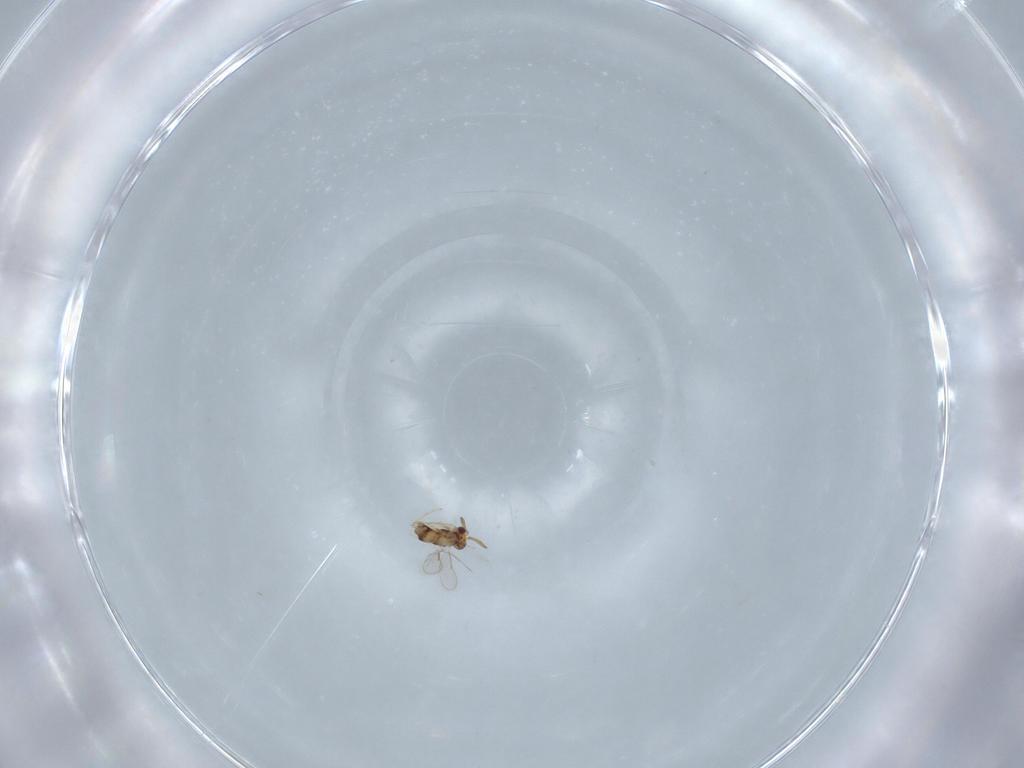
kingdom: Animalia
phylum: Arthropoda
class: Insecta
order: Hymenoptera
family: Aphelinidae
